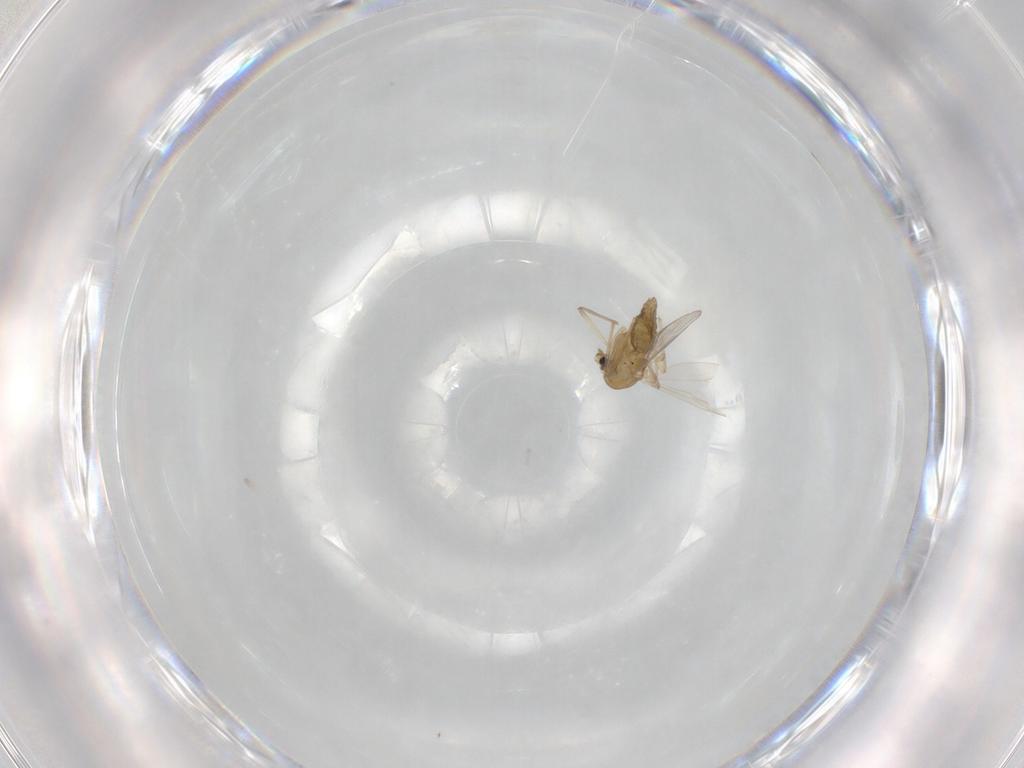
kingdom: Animalia
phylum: Arthropoda
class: Insecta
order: Diptera
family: Chironomidae
